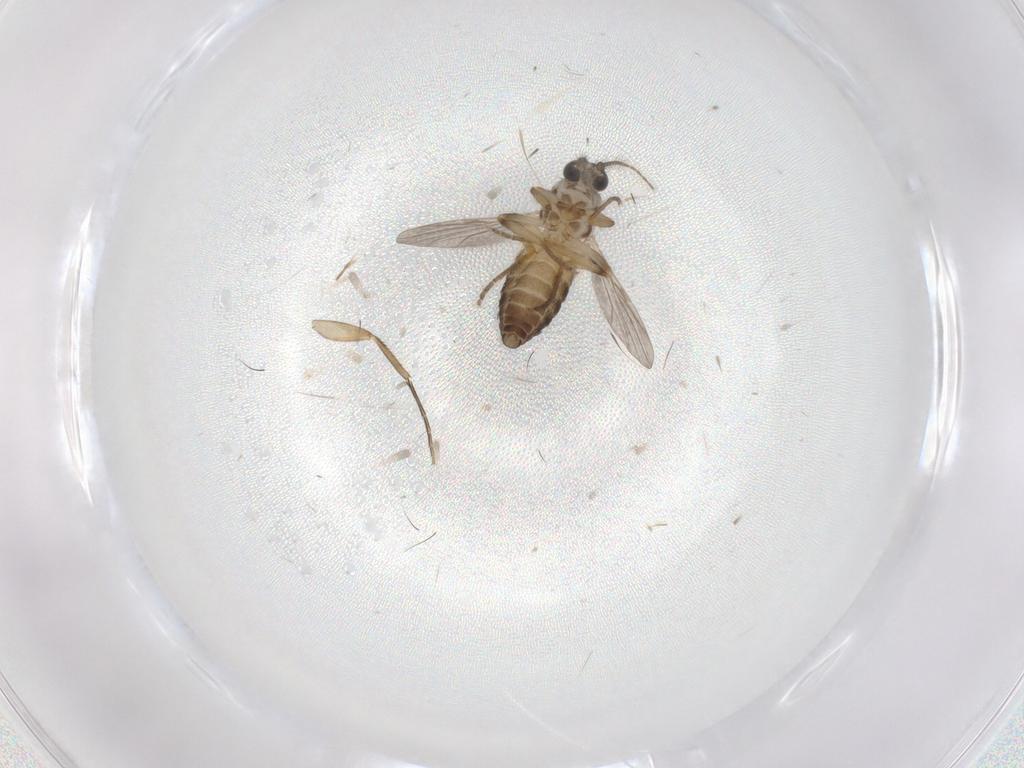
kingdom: Animalia
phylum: Arthropoda
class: Insecta
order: Diptera
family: Ceratopogonidae
